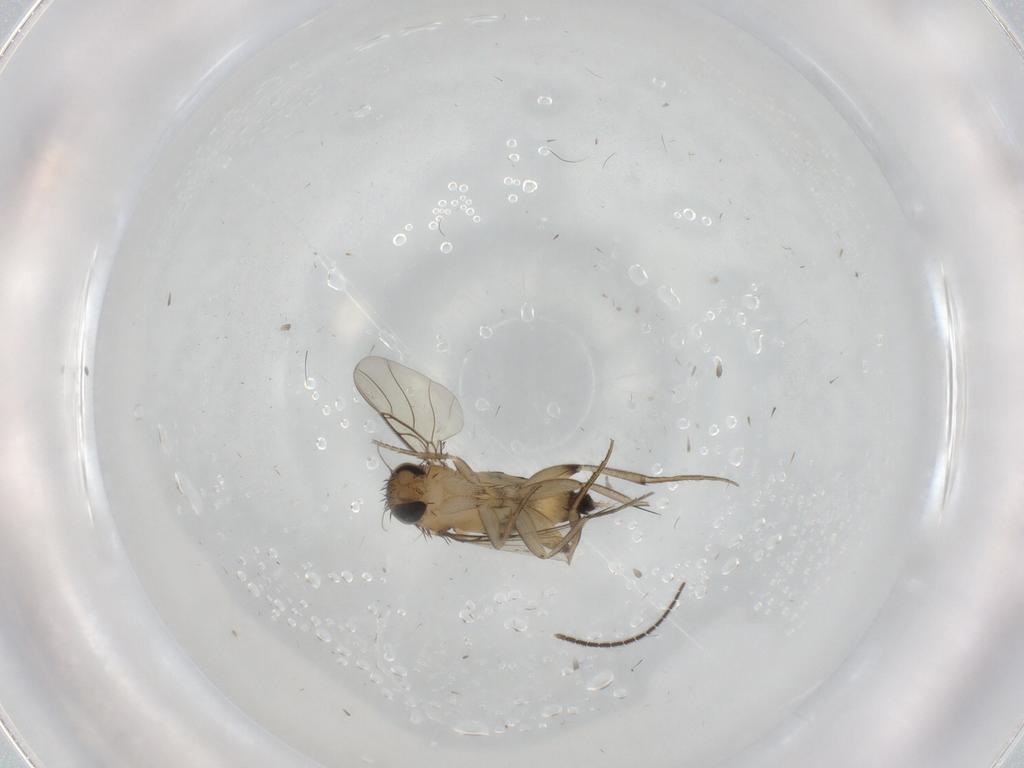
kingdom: Animalia
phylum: Arthropoda
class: Insecta
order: Diptera
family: Phoridae
